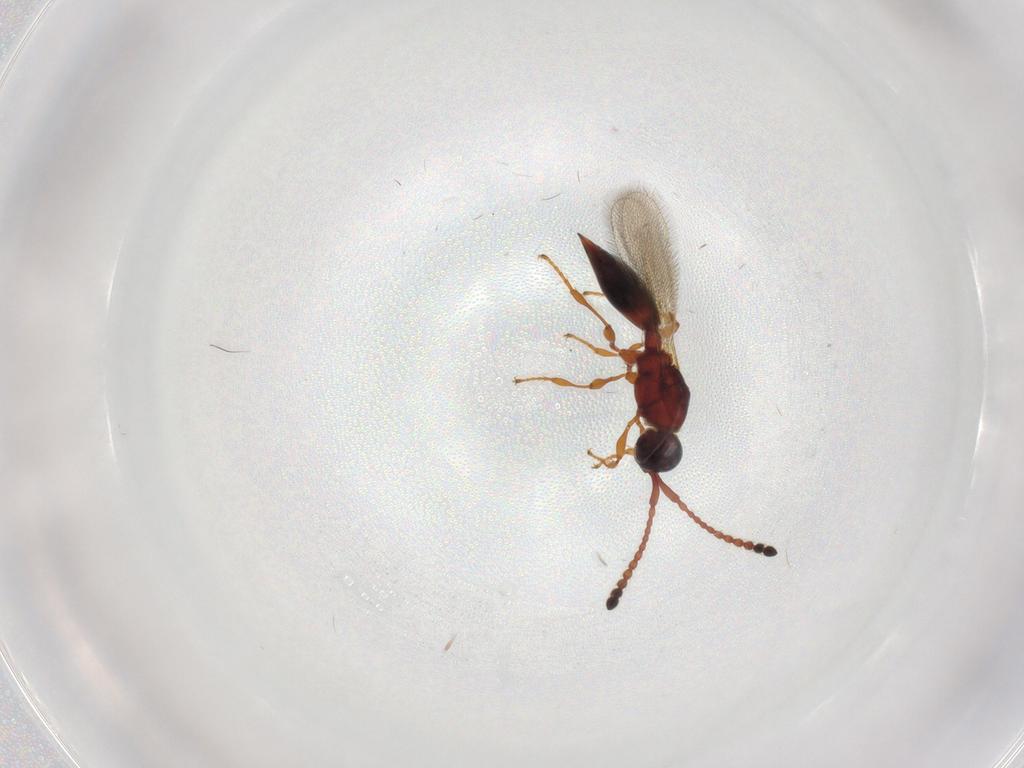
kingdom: Animalia
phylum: Arthropoda
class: Insecta
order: Hymenoptera
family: Diapriidae
